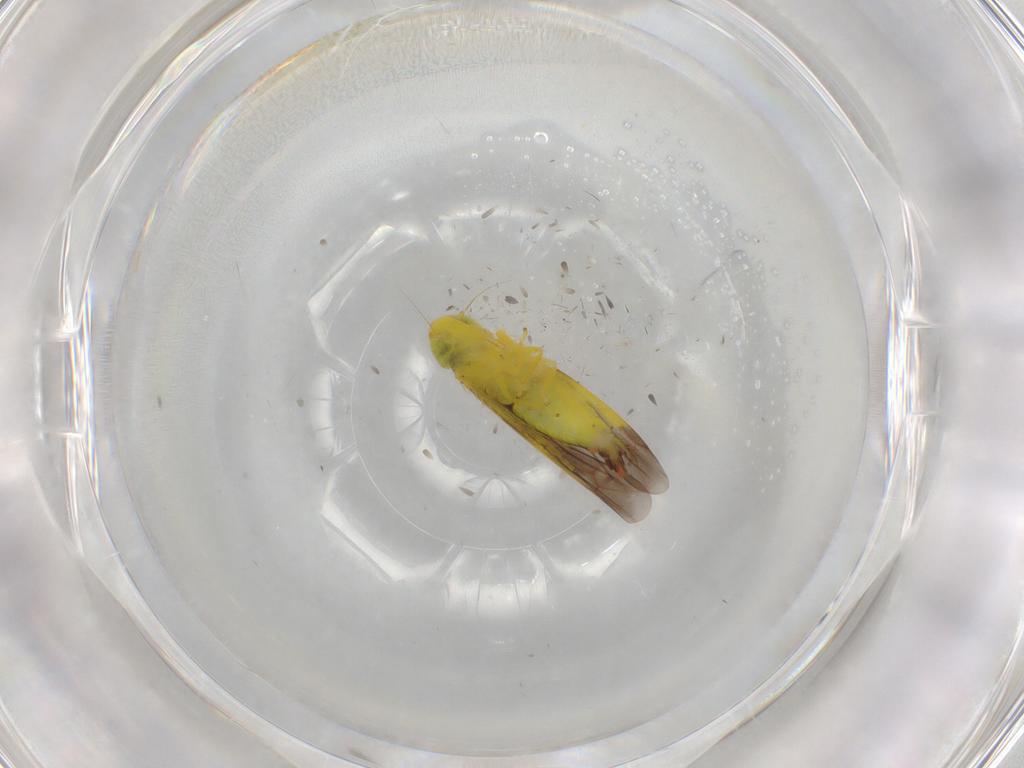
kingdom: Animalia
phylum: Arthropoda
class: Insecta
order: Hemiptera
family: Cicadellidae
